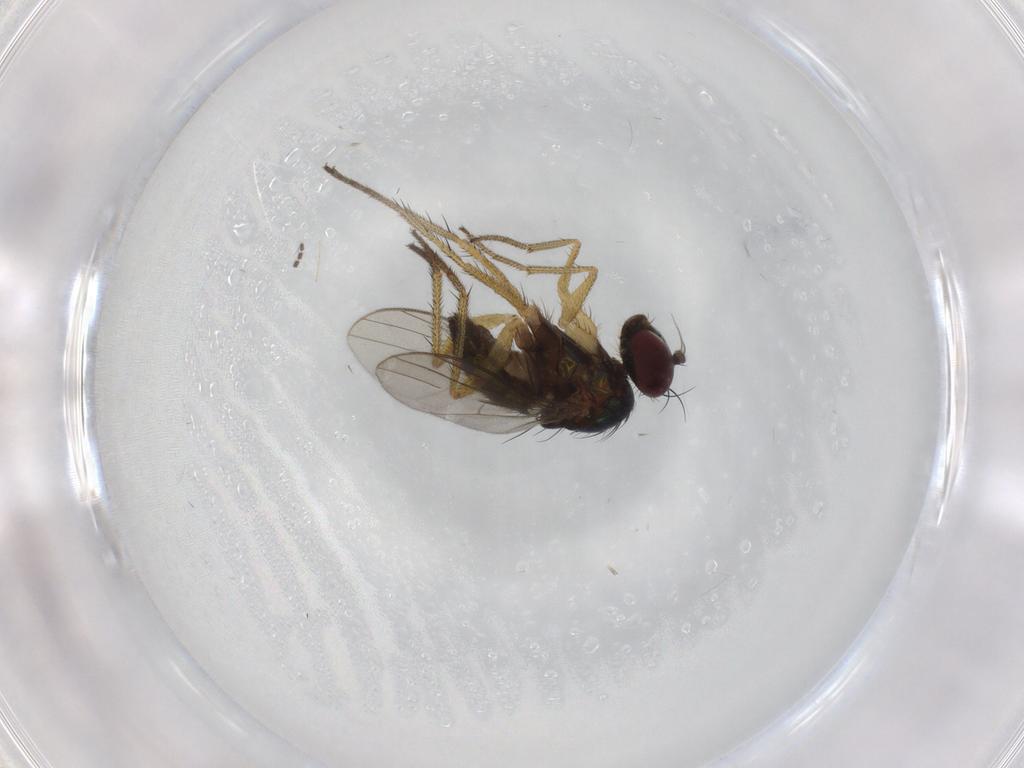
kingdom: Animalia
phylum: Arthropoda
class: Insecta
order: Diptera
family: Dolichopodidae
